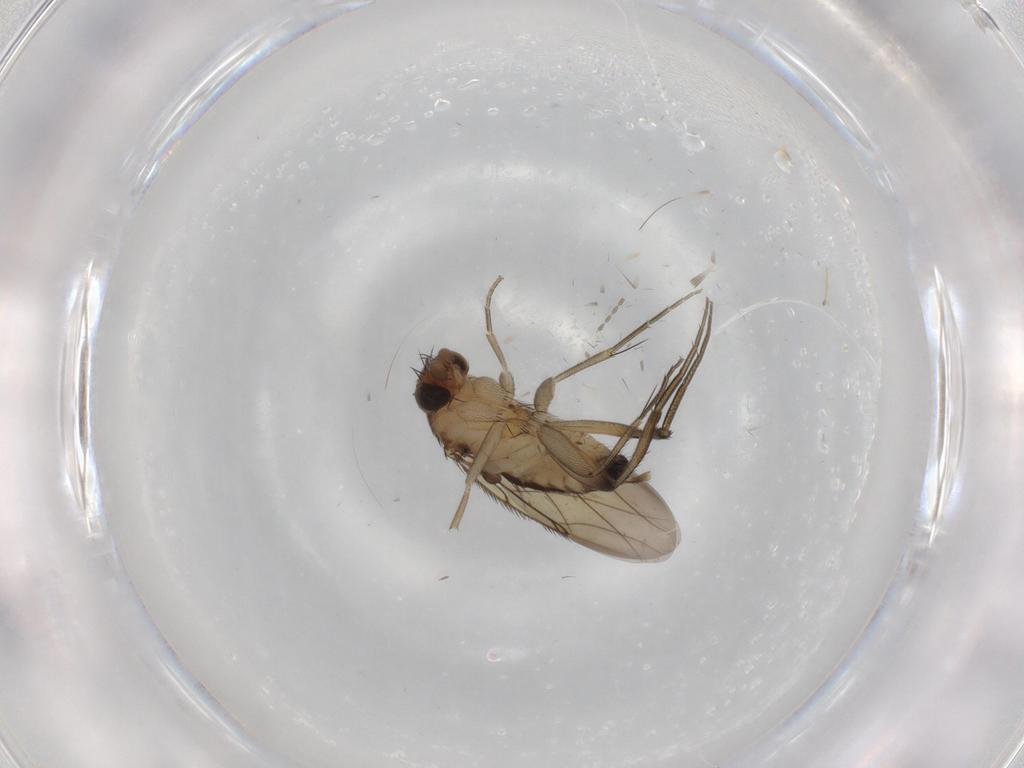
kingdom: Animalia
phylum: Arthropoda
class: Insecta
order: Diptera
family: Phoridae
